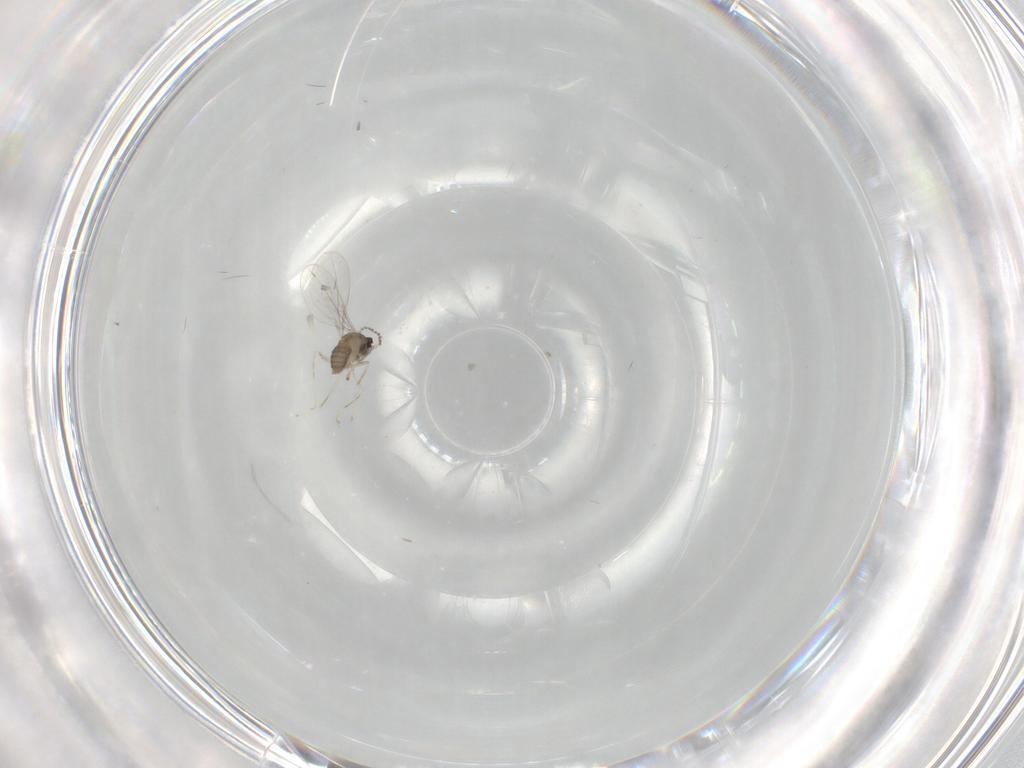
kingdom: Animalia
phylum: Arthropoda
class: Insecta
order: Diptera
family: Cecidomyiidae
